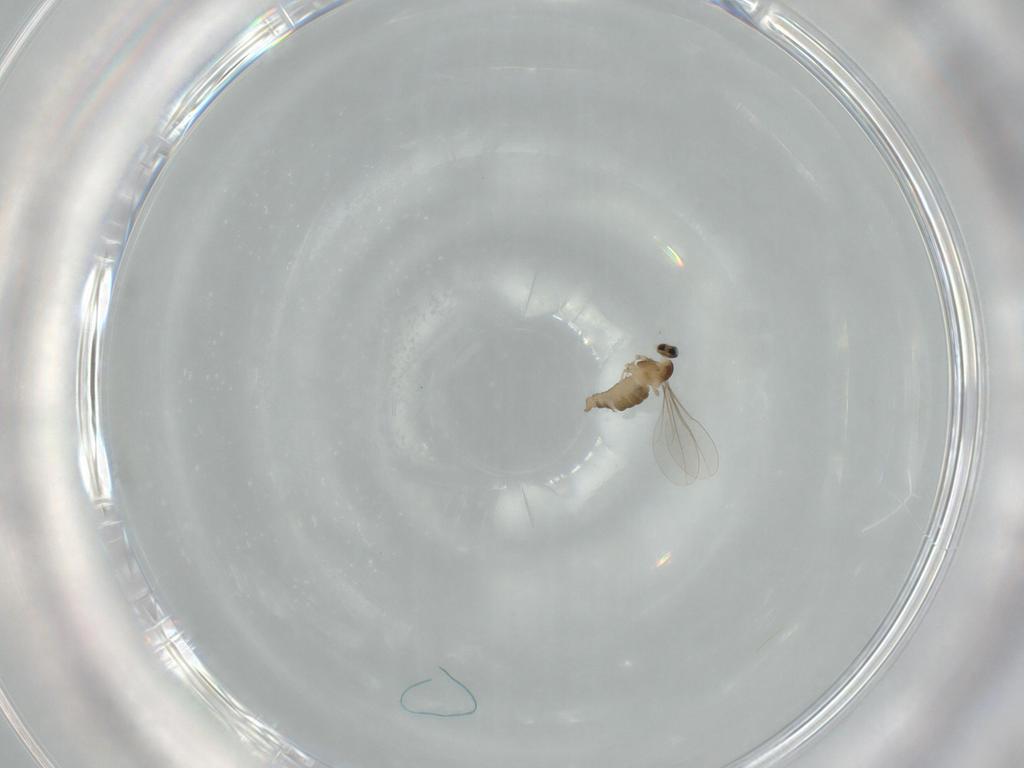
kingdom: Animalia
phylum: Arthropoda
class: Insecta
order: Diptera
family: Cecidomyiidae
